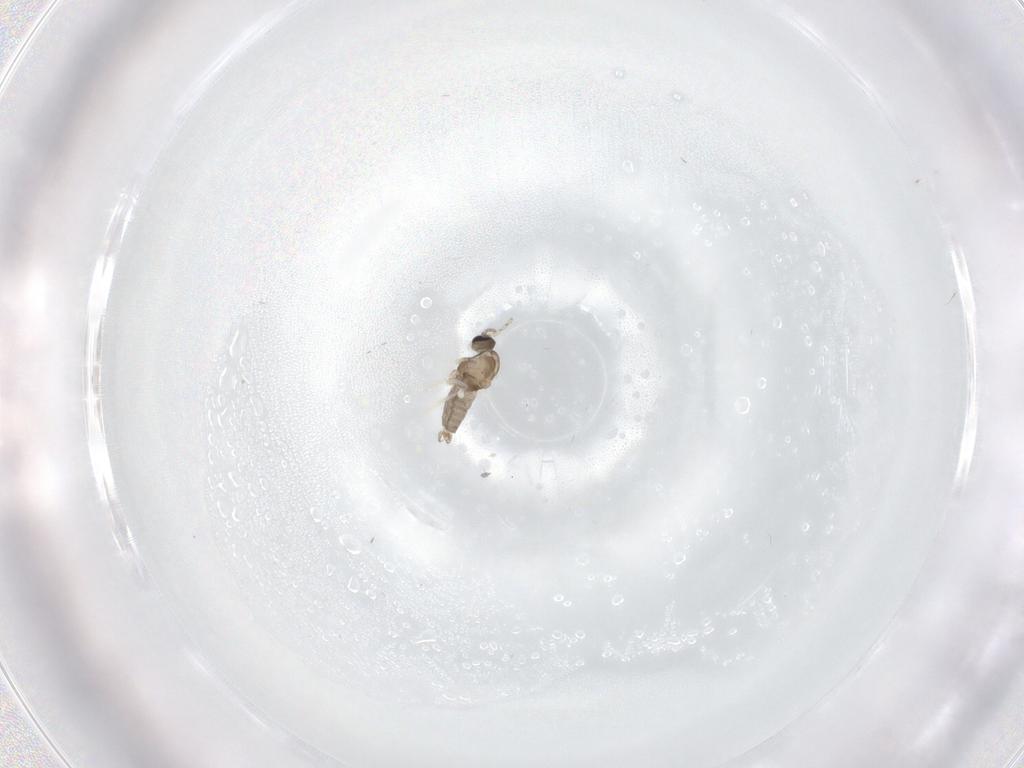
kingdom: Animalia
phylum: Arthropoda
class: Insecta
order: Diptera
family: Cecidomyiidae
